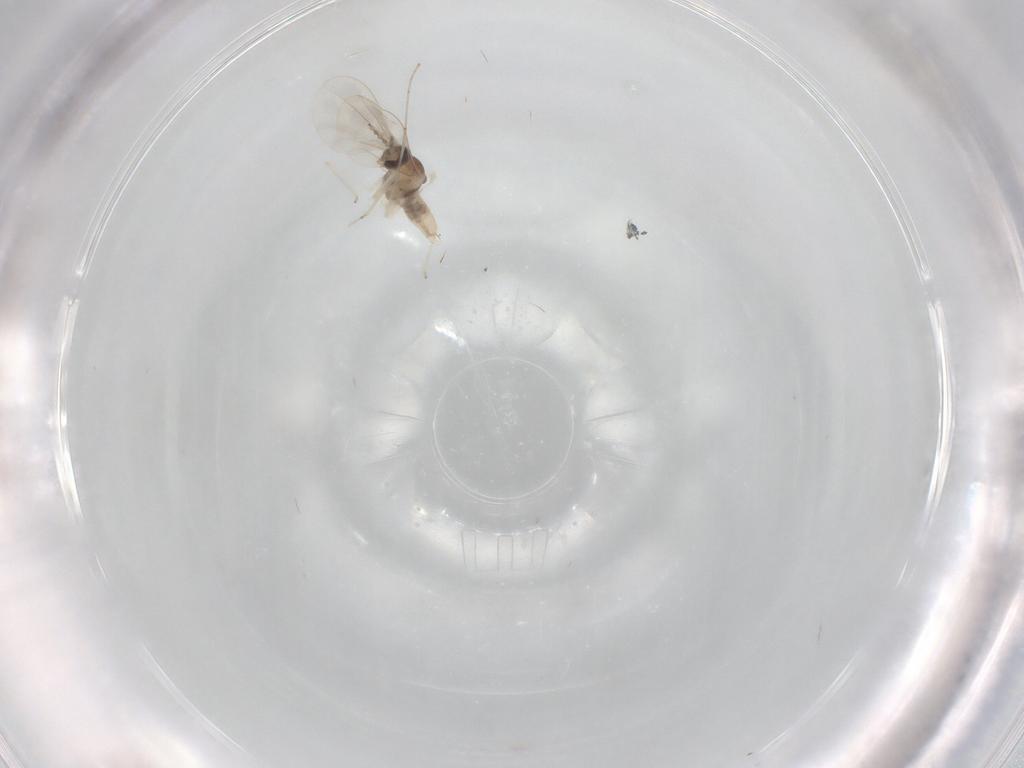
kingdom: Animalia
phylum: Arthropoda
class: Insecta
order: Diptera
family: Cecidomyiidae
